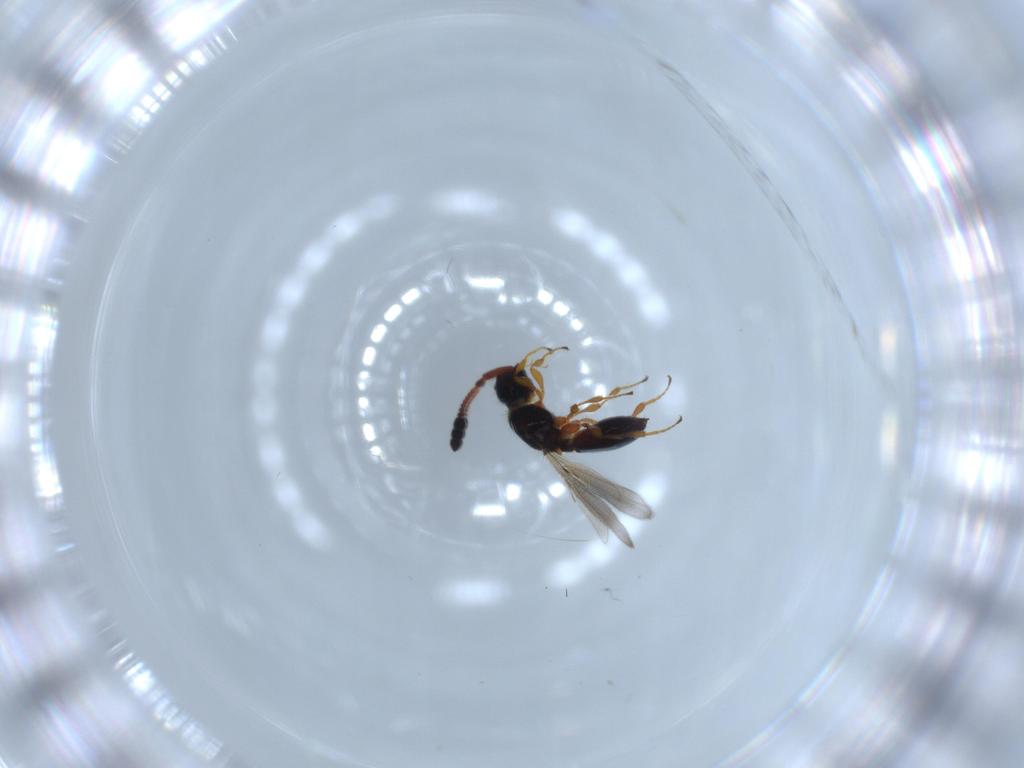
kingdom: Animalia
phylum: Arthropoda
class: Insecta
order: Hymenoptera
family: Diapriidae
